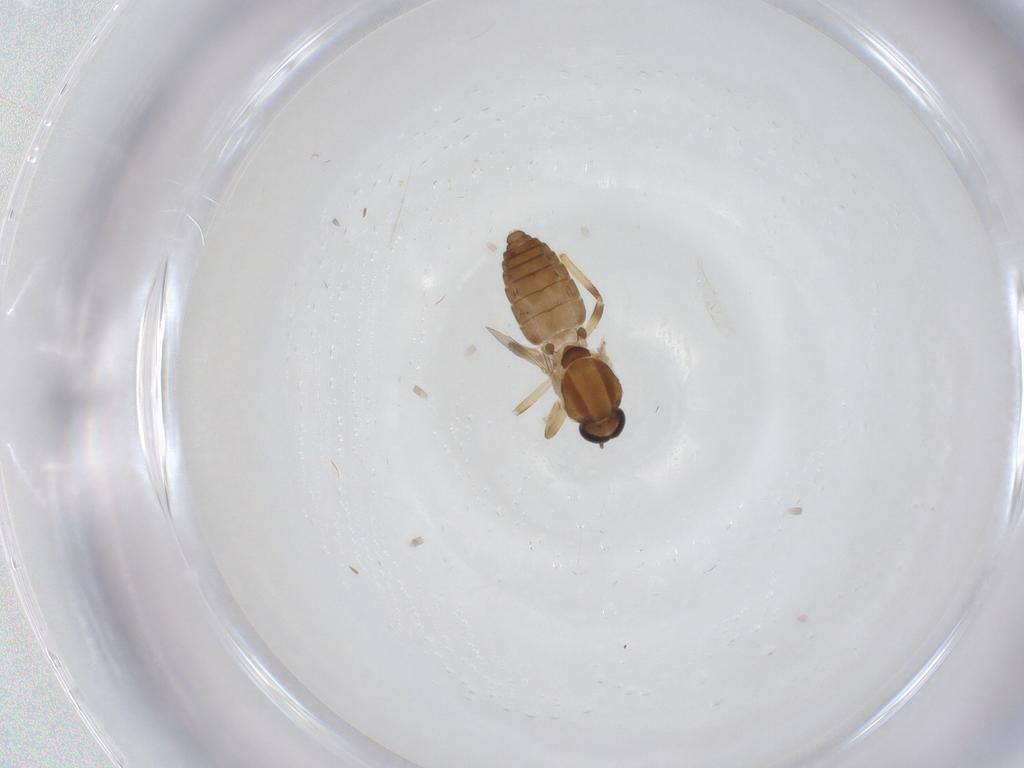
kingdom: Animalia
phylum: Arthropoda
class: Insecta
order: Diptera
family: Ceratopogonidae
